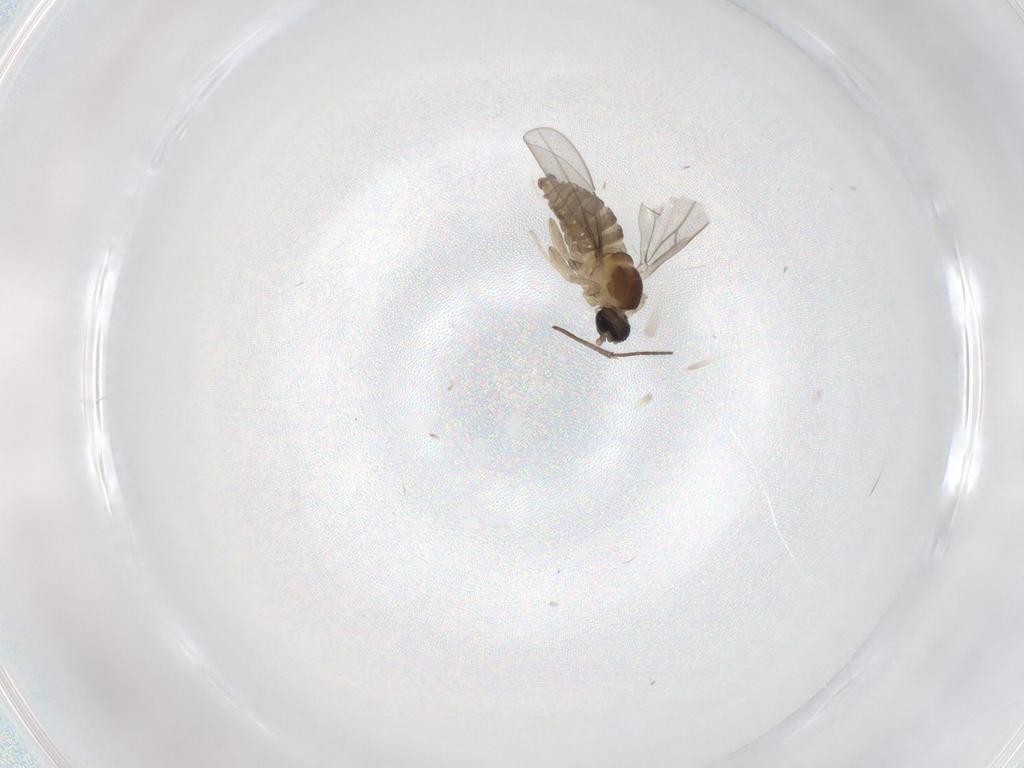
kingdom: Animalia
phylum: Arthropoda
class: Insecta
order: Diptera
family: Cecidomyiidae
